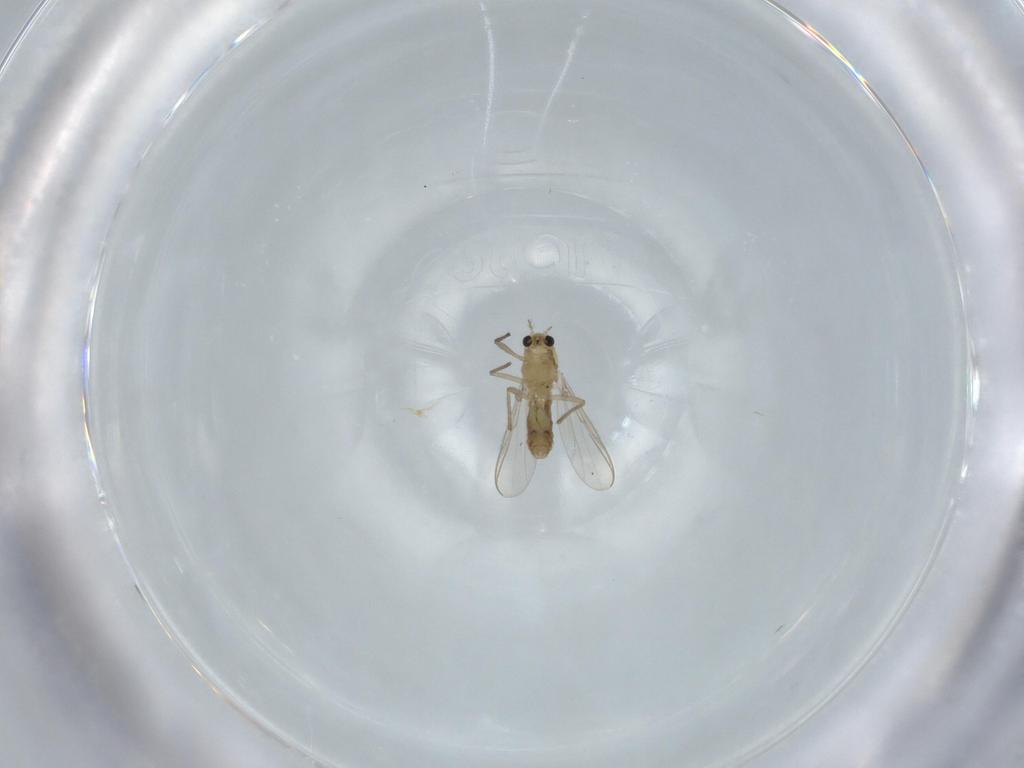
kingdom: Animalia
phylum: Arthropoda
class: Insecta
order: Diptera
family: Chironomidae
